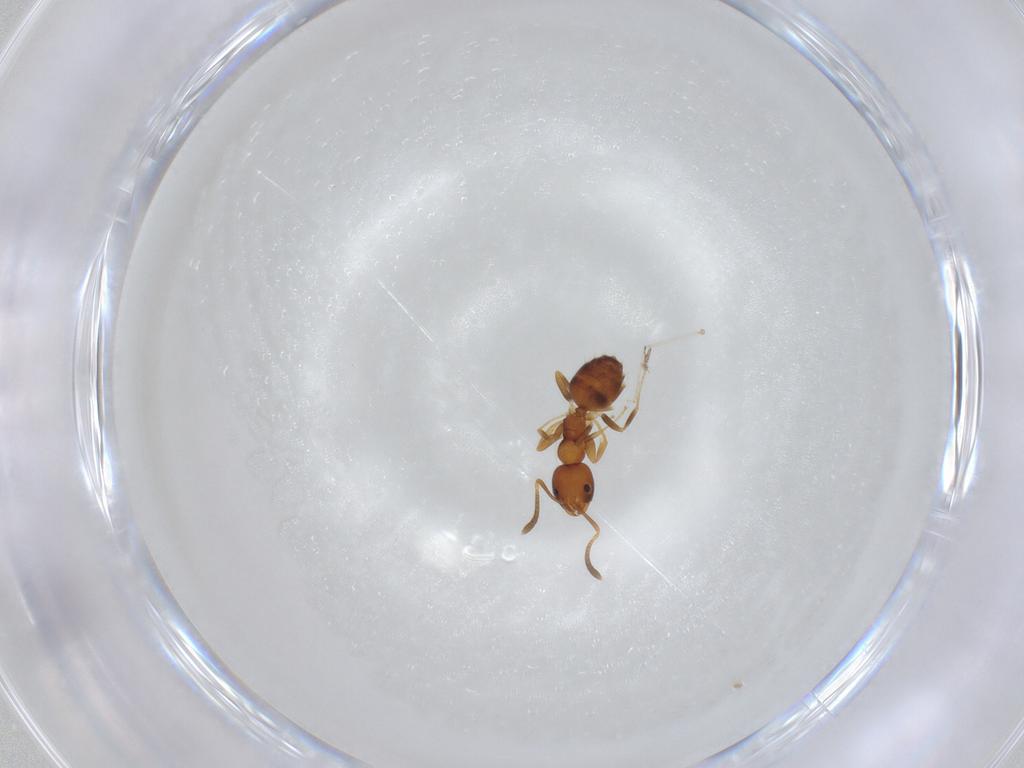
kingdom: Animalia
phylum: Arthropoda
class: Insecta
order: Hymenoptera
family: Formicidae
